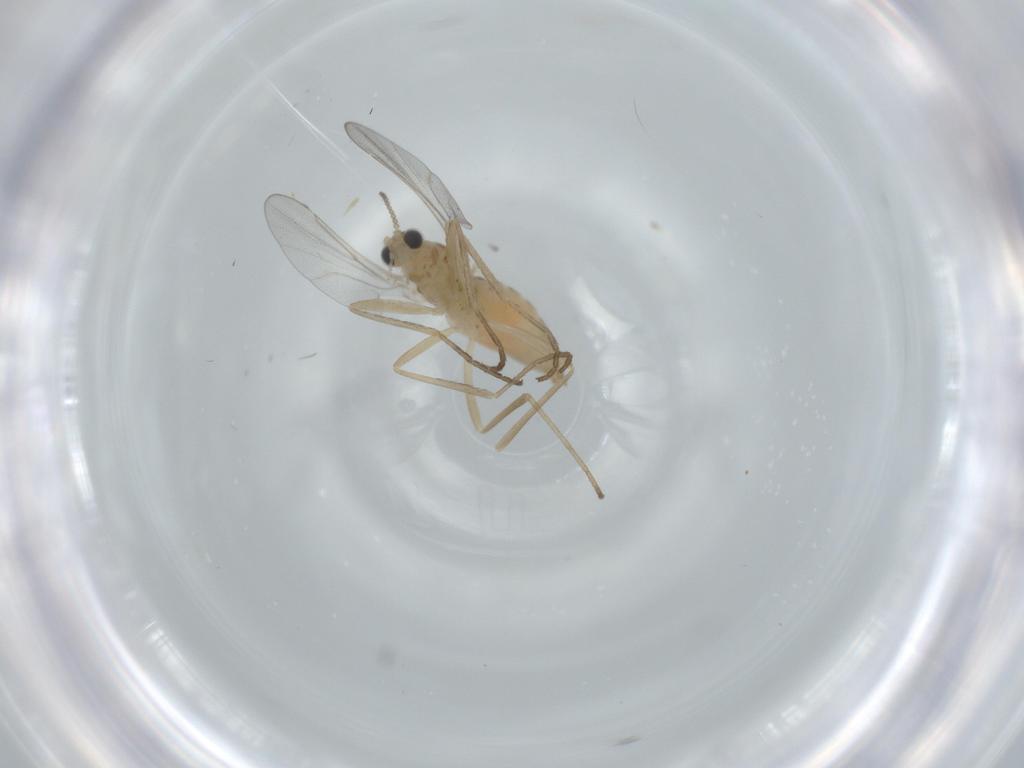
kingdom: Animalia
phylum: Arthropoda
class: Insecta
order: Diptera
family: Cecidomyiidae
